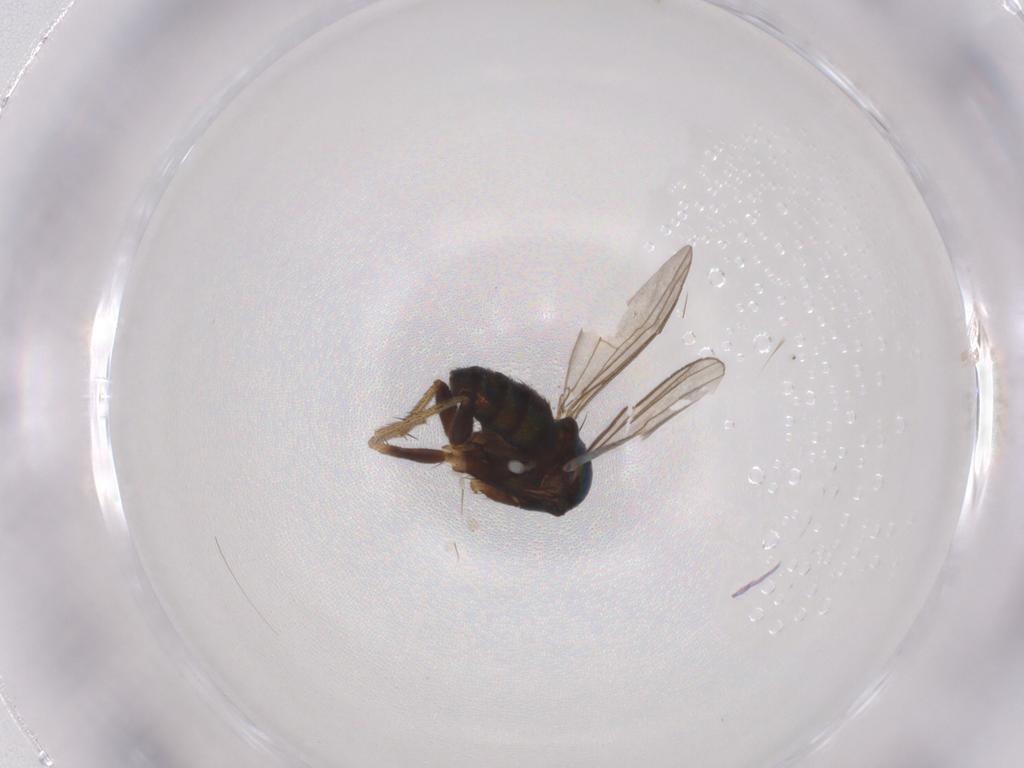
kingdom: Animalia
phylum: Arthropoda
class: Insecta
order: Diptera
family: Dolichopodidae
